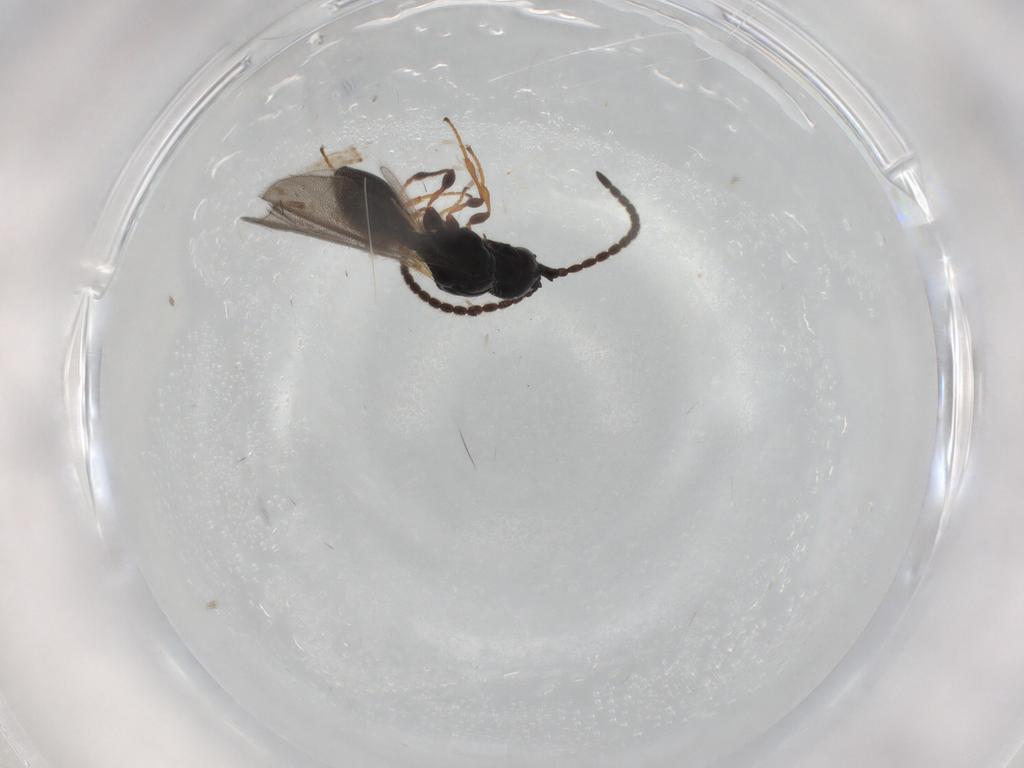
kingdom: Animalia
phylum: Arthropoda
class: Insecta
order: Hymenoptera
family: Diapriidae
